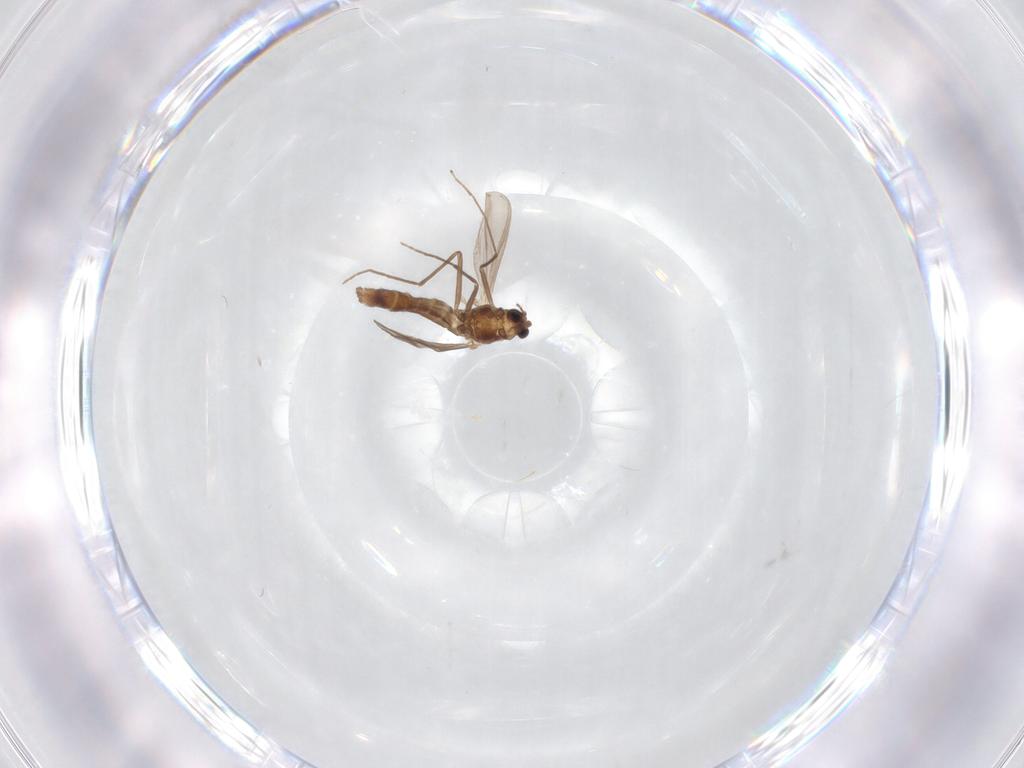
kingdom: Animalia
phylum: Arthropoda
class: Insecta
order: Diptera
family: Chironomidae
